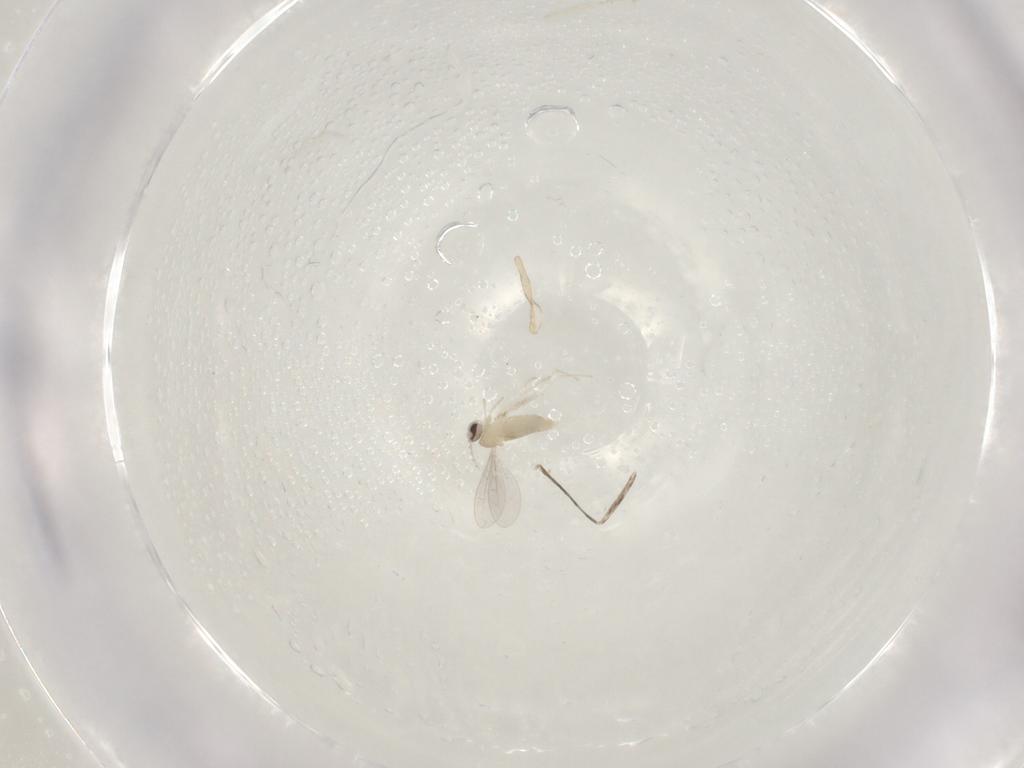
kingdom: Animalia
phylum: Arthropoda
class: Insecta
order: Diptera
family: Cecidomyiidae
